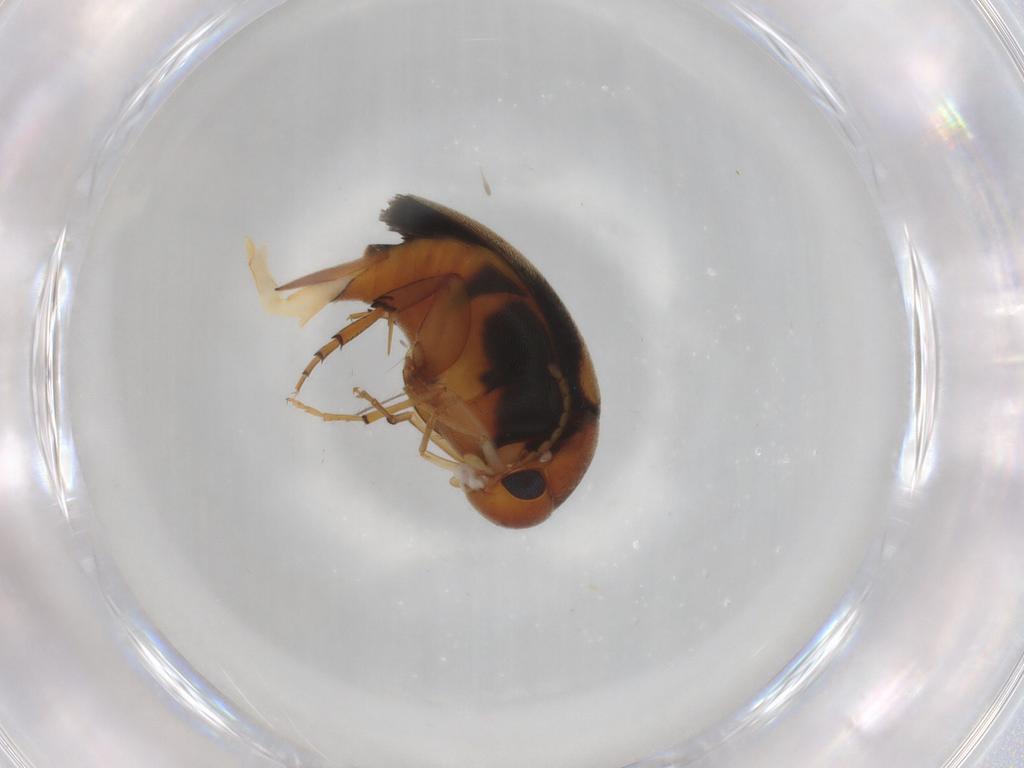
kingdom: Animalia
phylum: Arthropoda
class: Insecta
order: Coleoptera
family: Mordellidae
